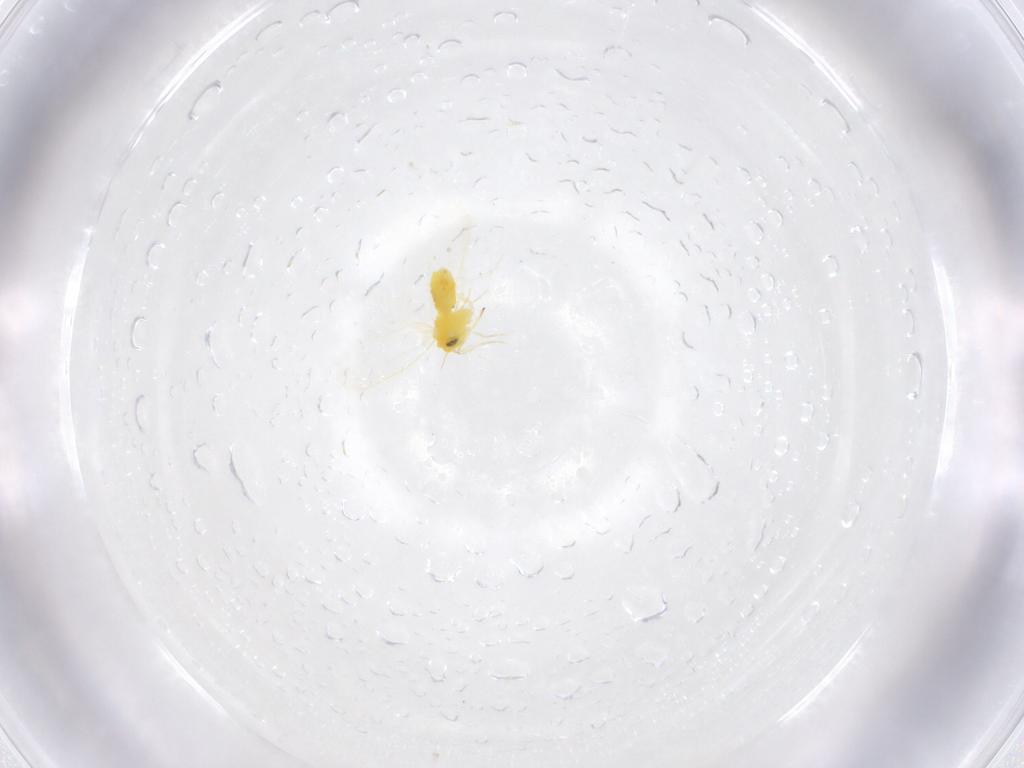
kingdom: Animalia
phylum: Arthropoda
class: Insecta
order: Hemiptera
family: Aleyrodidae
